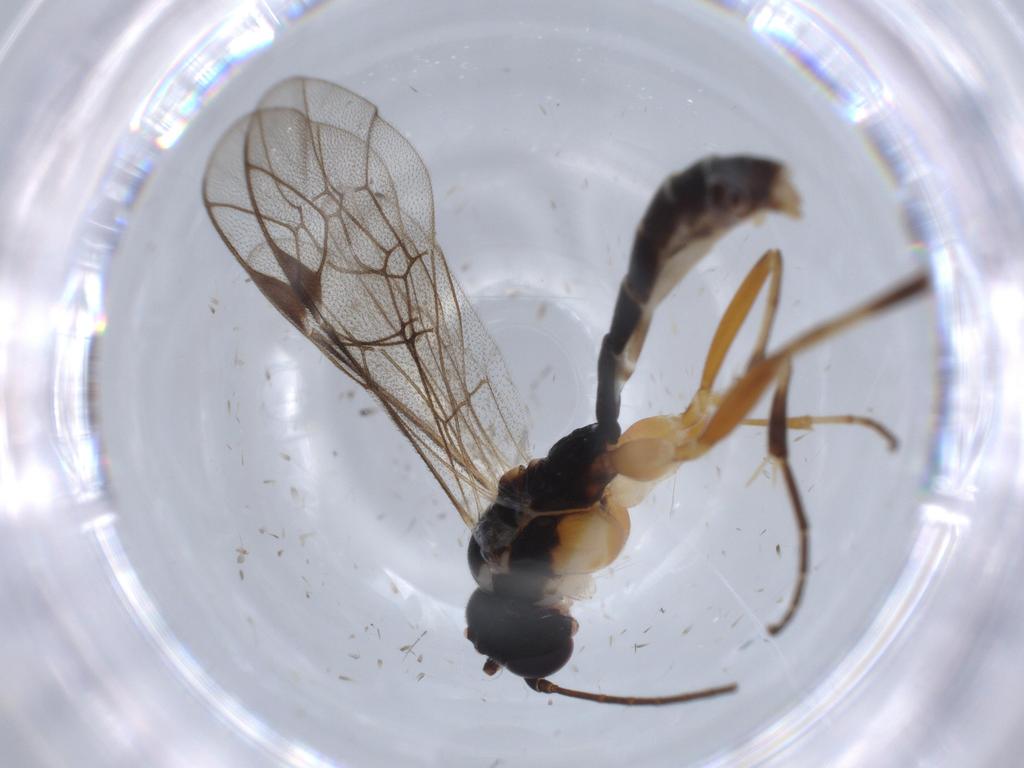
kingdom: Animalia
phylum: Arthropoda
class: Insecta
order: Hymenoptera
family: Ichneumonidae
